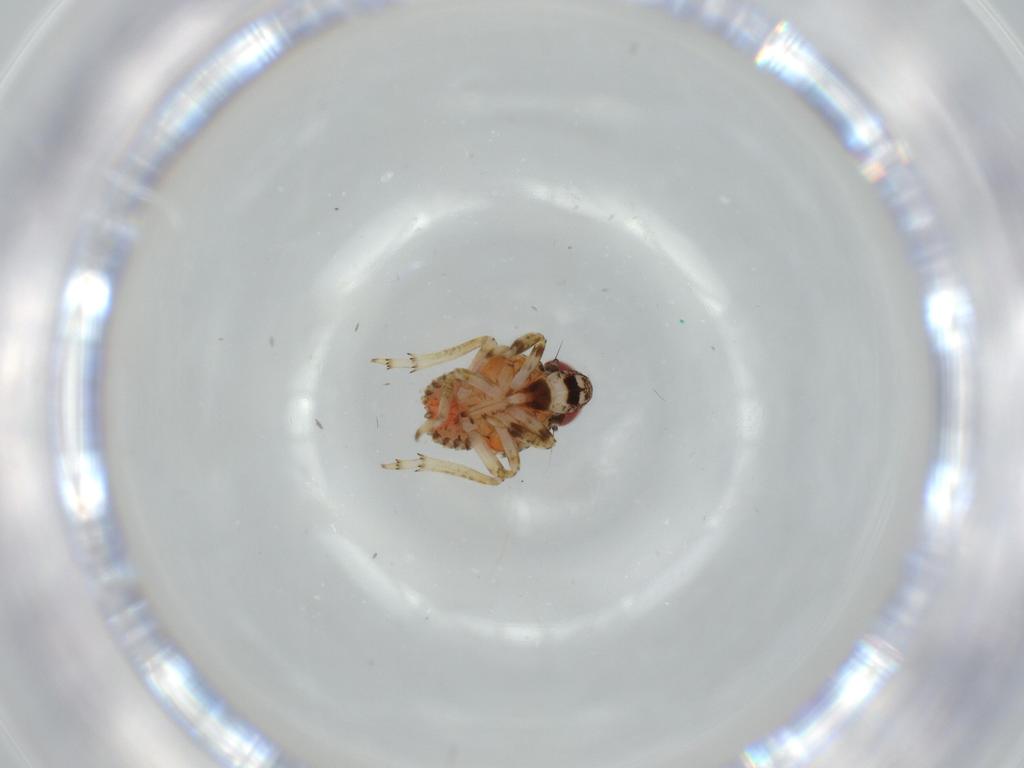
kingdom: Animalia
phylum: Arthropoda
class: Insecta
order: Hemiptera
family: Issidae
